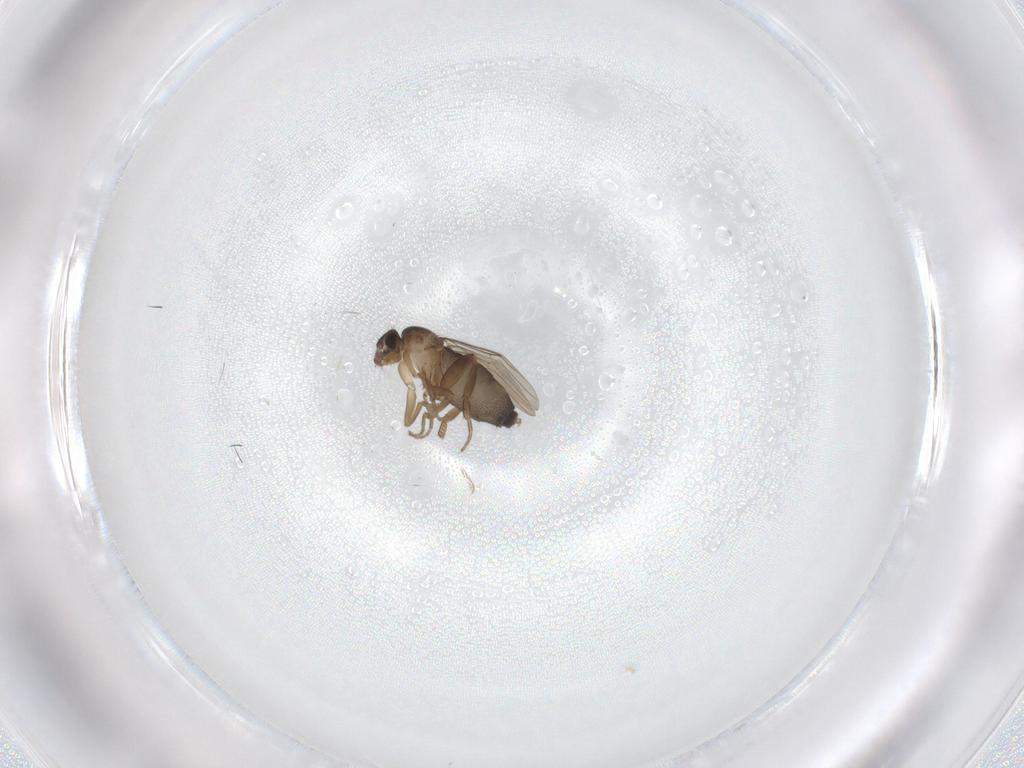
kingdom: Animalia
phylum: Arthropoda
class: Insecta
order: Diptera
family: Phoridae
